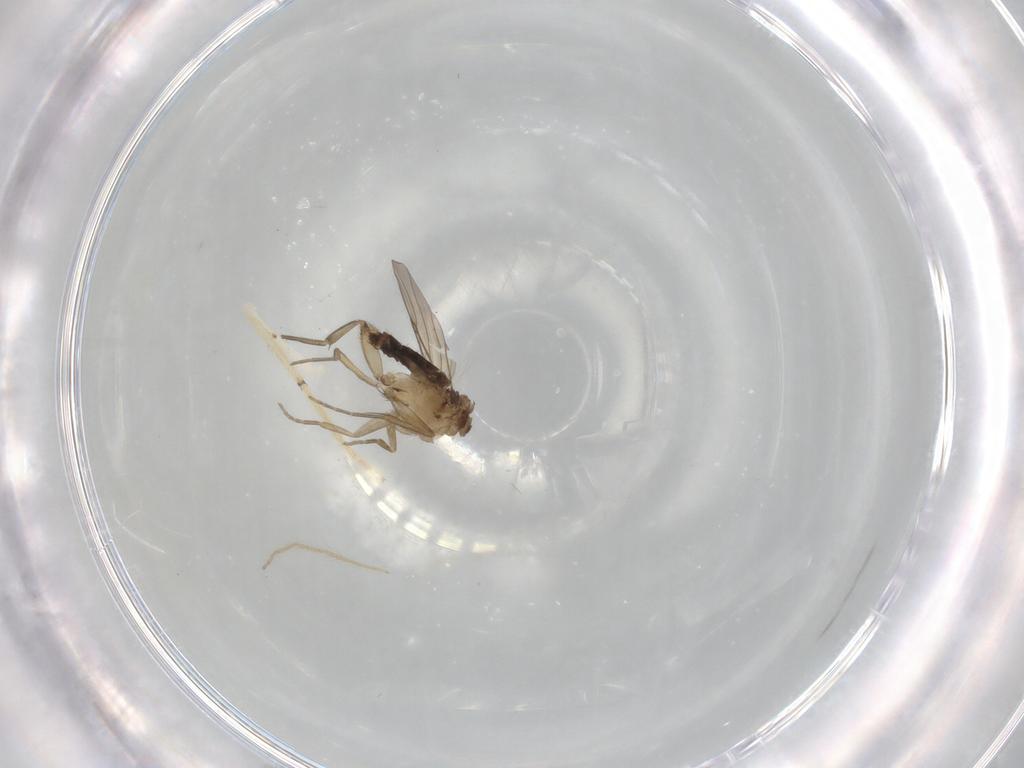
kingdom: Animalia
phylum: Arthropoda
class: Insecta
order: Diptera
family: Phoridae
